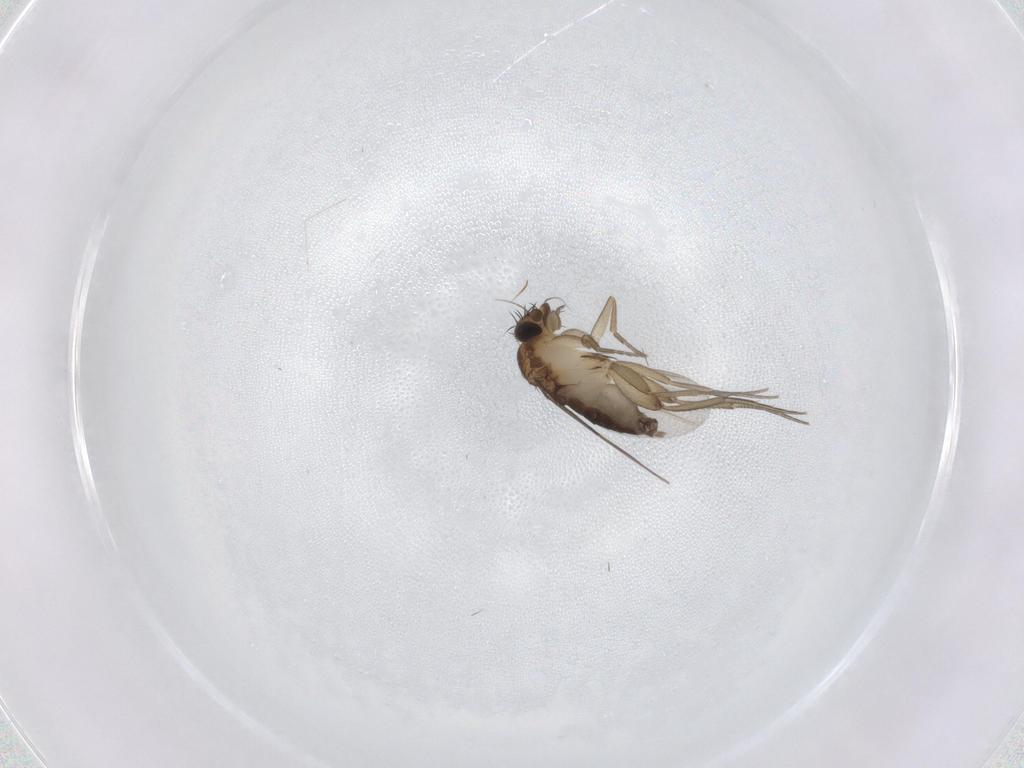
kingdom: Animalia
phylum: Arthropoda
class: Insecta
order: Diptera
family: Phoridae
